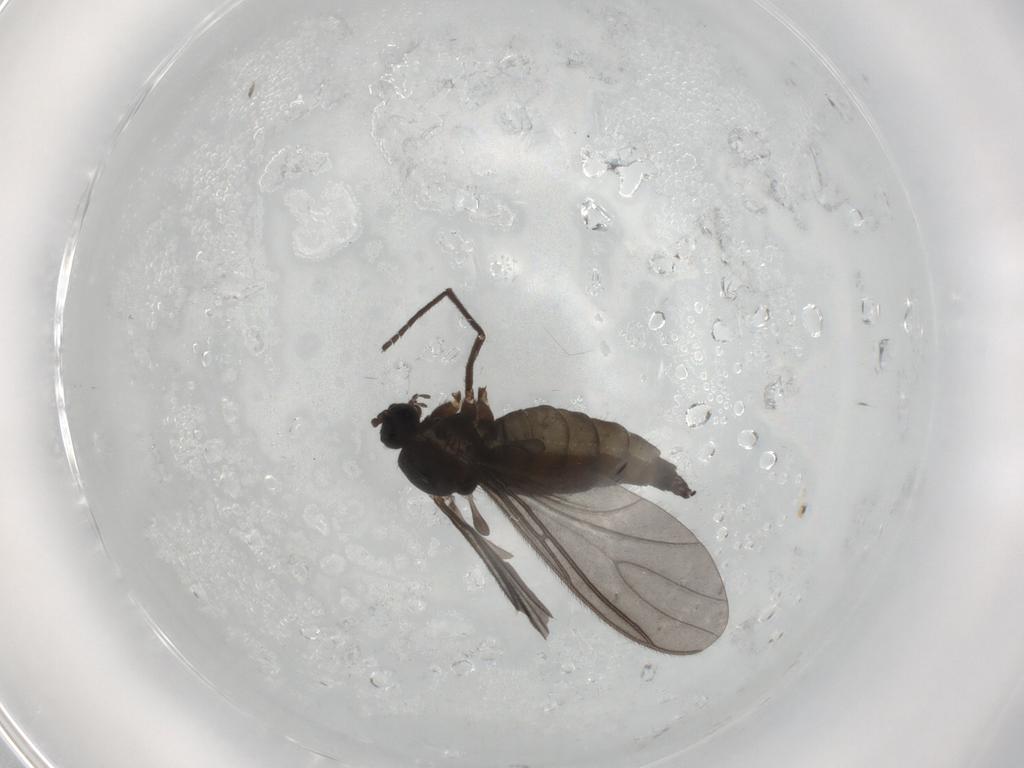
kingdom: Animalia
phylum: Arthropoda
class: Insecta
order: Diptera
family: Sciaridae
